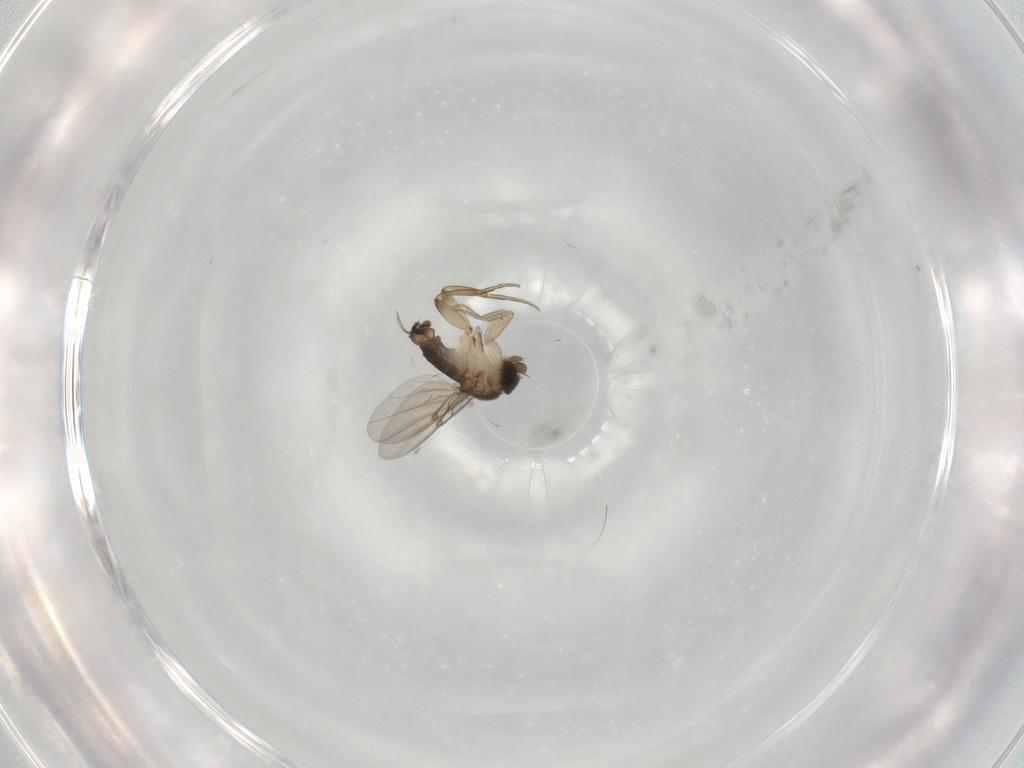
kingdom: Animalia
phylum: Arthropoda
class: Insecta
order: Diptera
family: Phoridae
